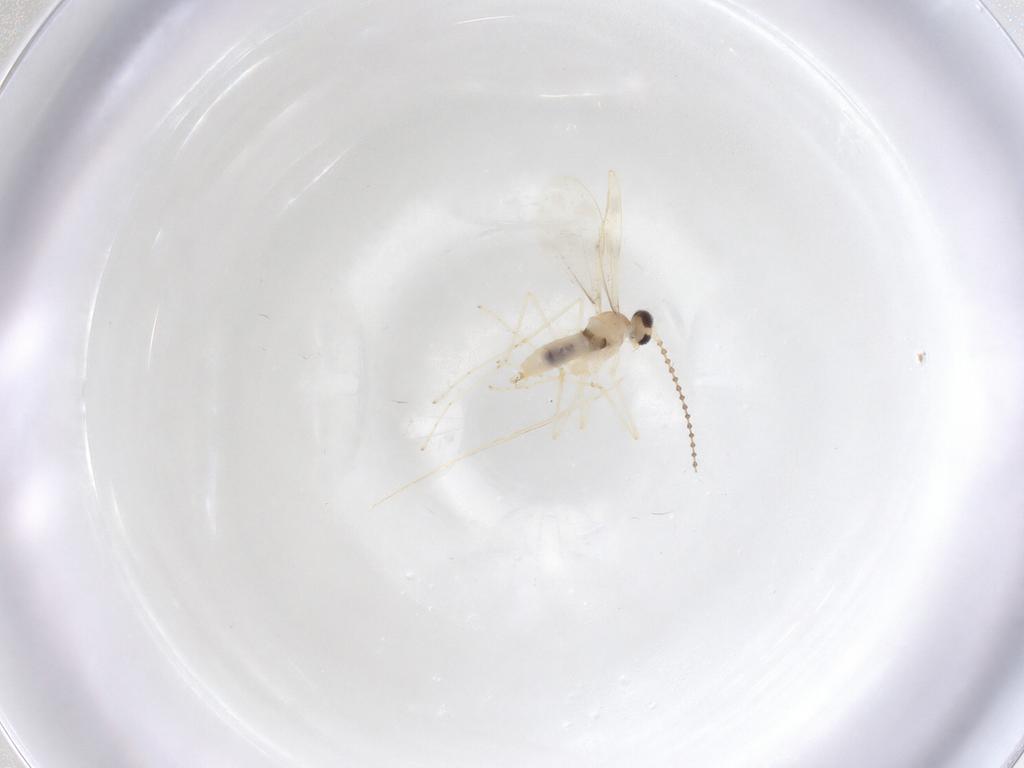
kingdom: Animalia
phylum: Arthropoda
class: Insecta
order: Diptera
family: Cecidomyiidae
